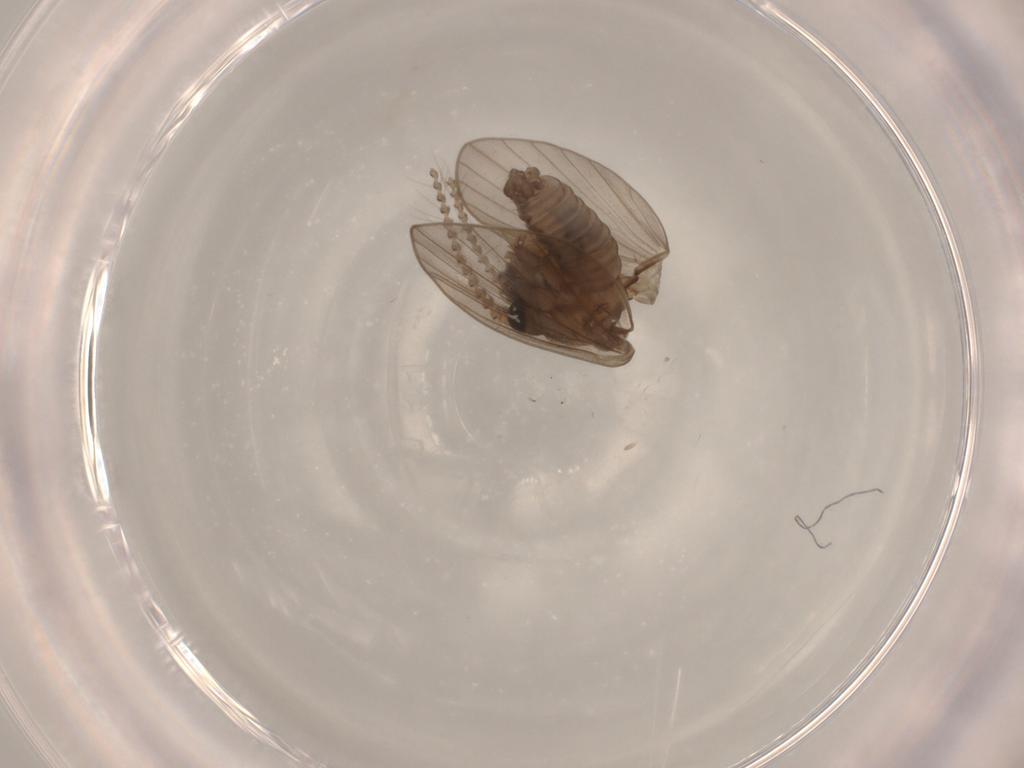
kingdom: Animalia
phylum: Arthropoda
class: Insecta
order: Diptera
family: Psychodidae
